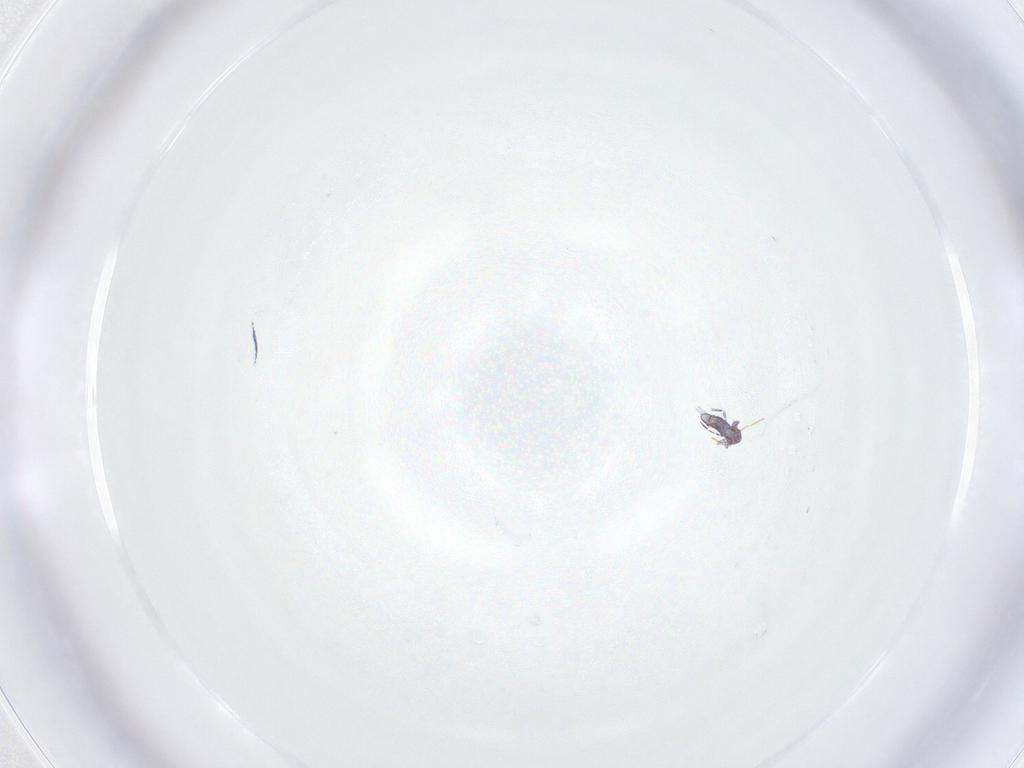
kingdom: Animalia
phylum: Arthropoda
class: Collembola
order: Symphypleona
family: Katiannidae
